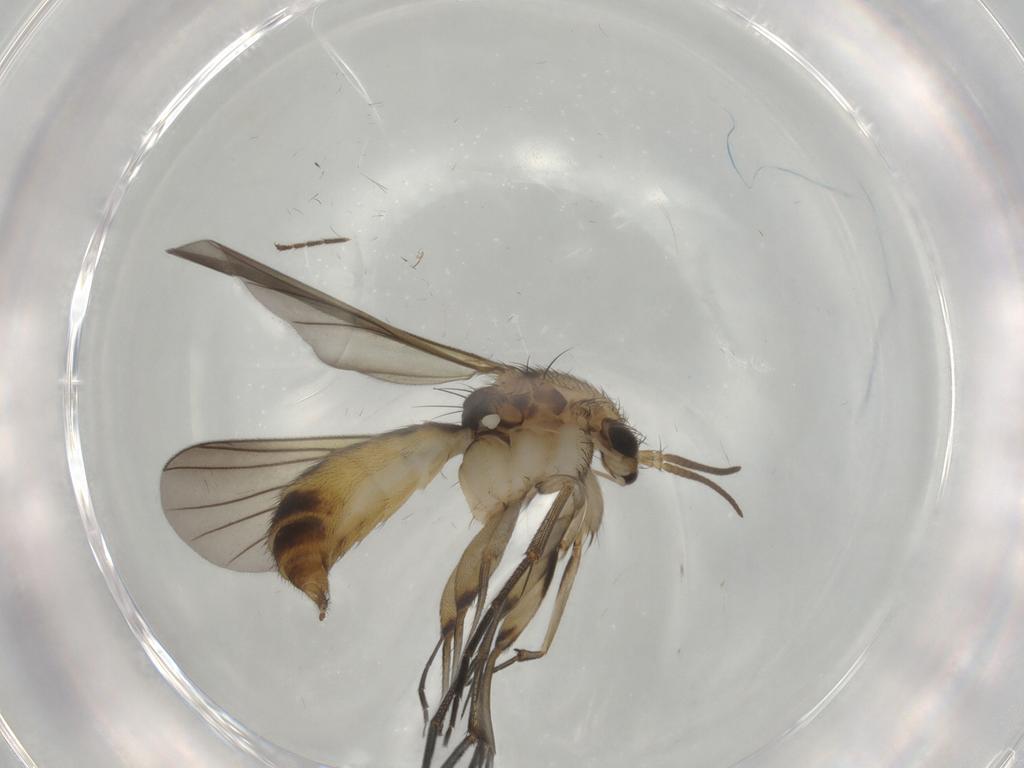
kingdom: Animalia
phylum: Arthropoda
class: Insecta
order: Diptera
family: Mycetophilidae
